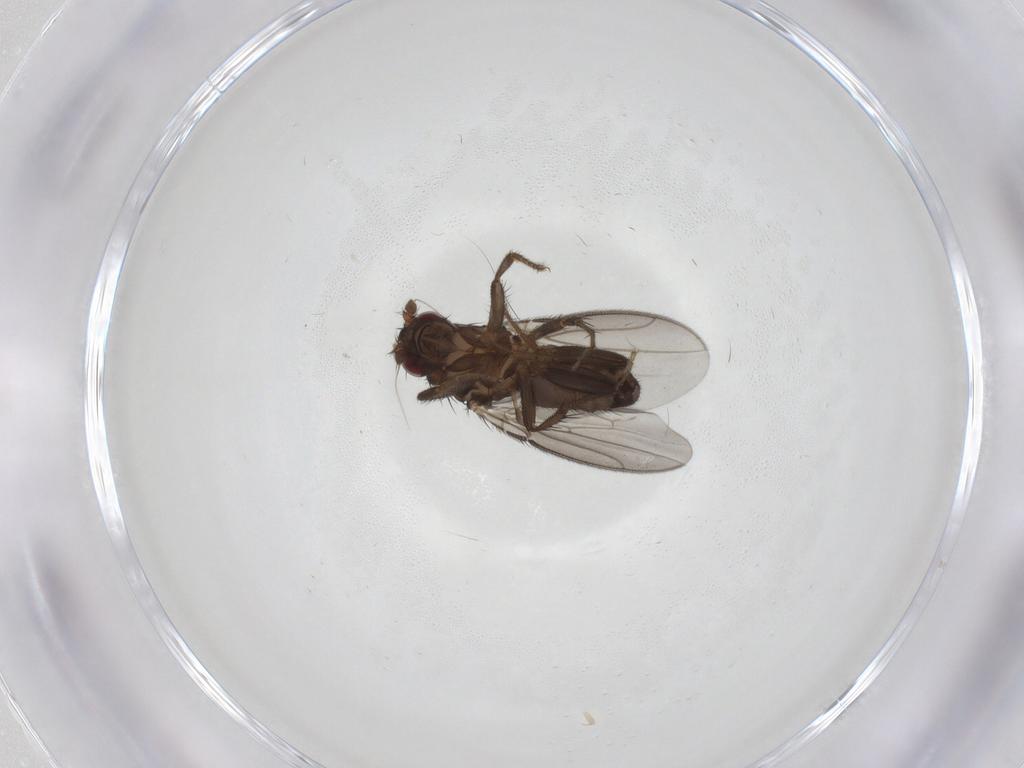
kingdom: Animalia
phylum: Arthropoda
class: Insecta
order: Diptera
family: Sphaeroceridae
